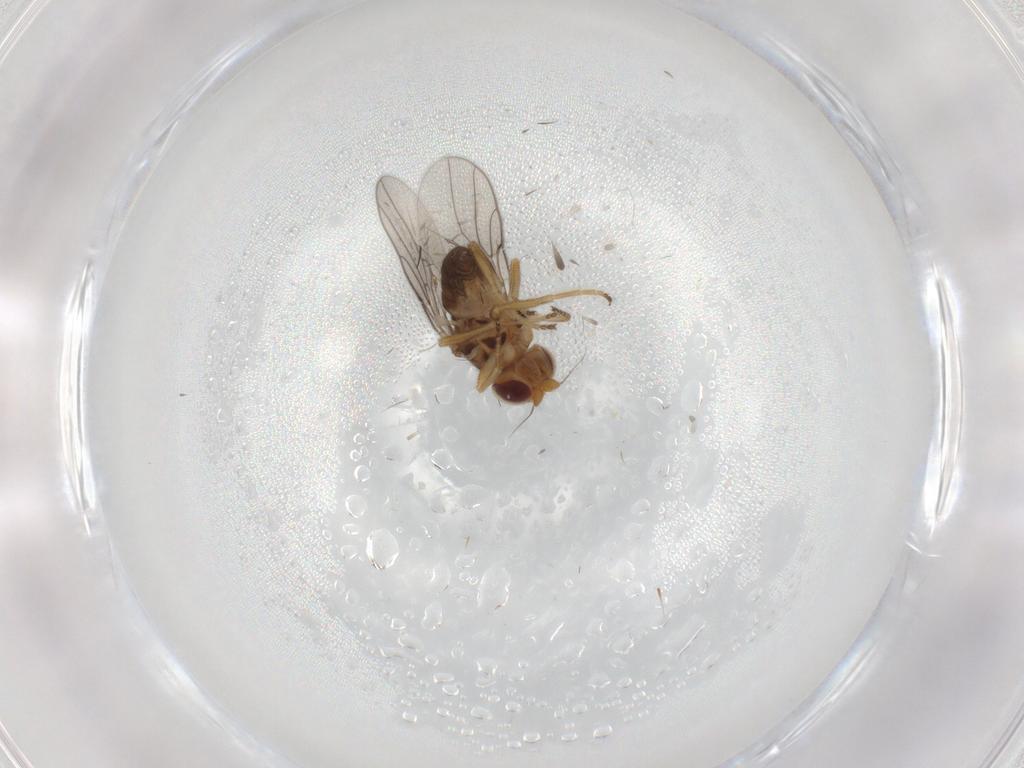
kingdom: Animalia
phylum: Arthropoda
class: Insecta
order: Diptera
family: Chloropidae
